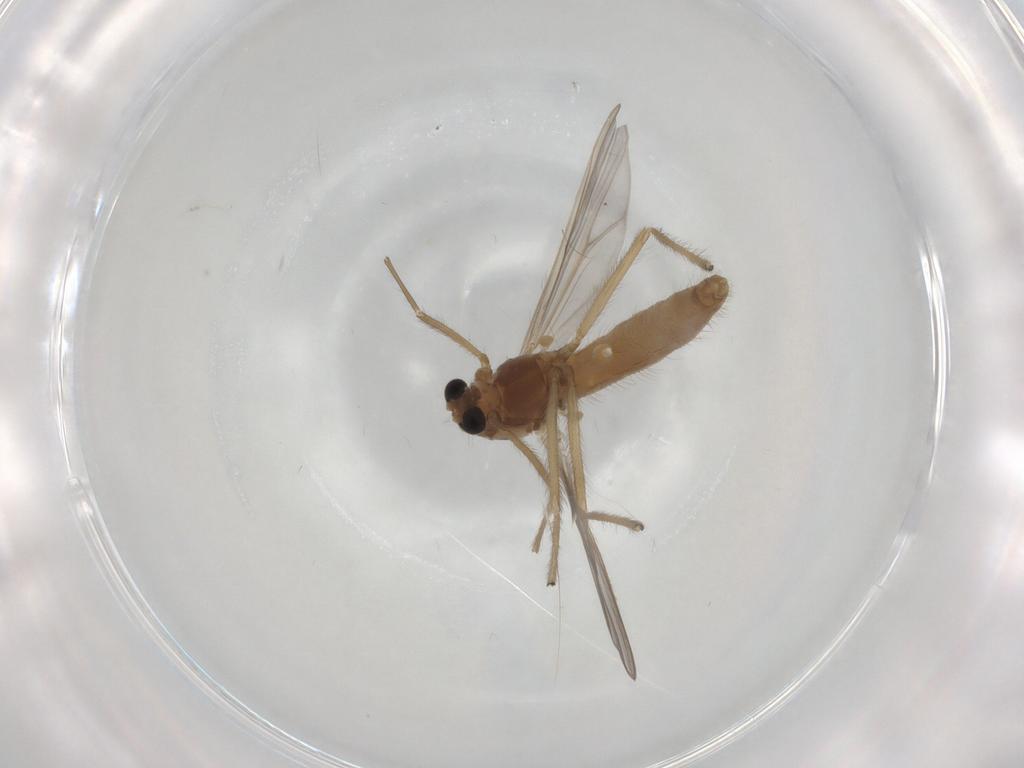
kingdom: Animalia
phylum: Arthropoda
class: Insecta
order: Diptera
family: Chironomidae
